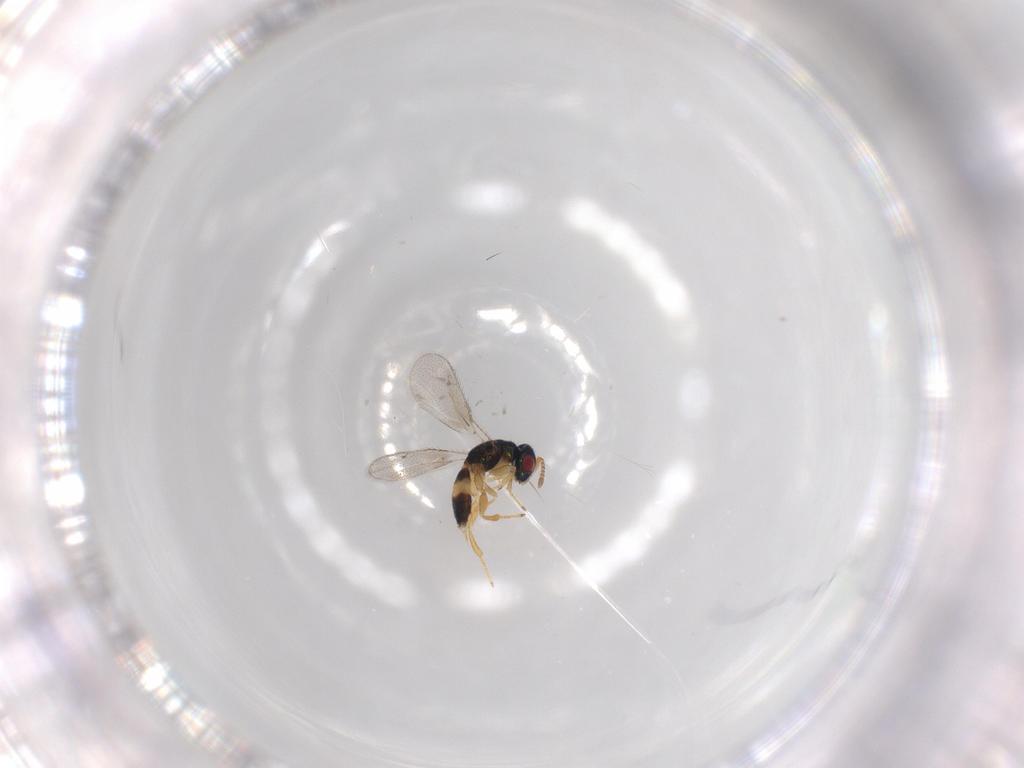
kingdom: Animalia
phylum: Arthropoda
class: Insecta
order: Hymenoptera
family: Torymidae
